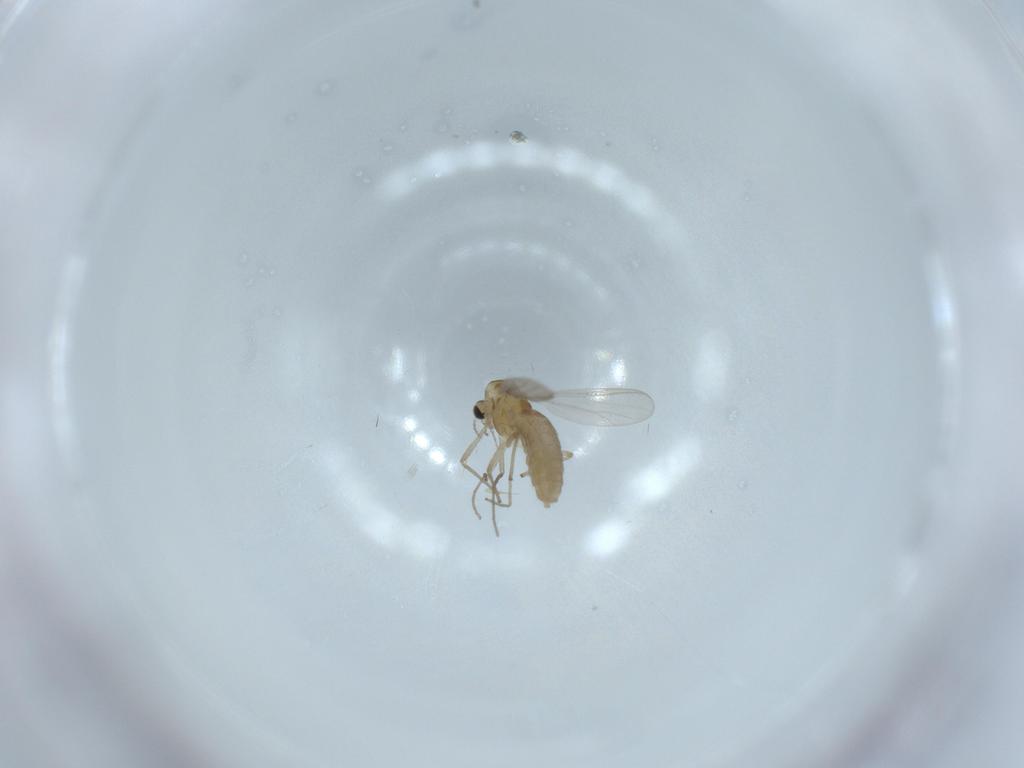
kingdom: Animalia
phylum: Arthropoda
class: Insecta
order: Diptera
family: Chironomidae
